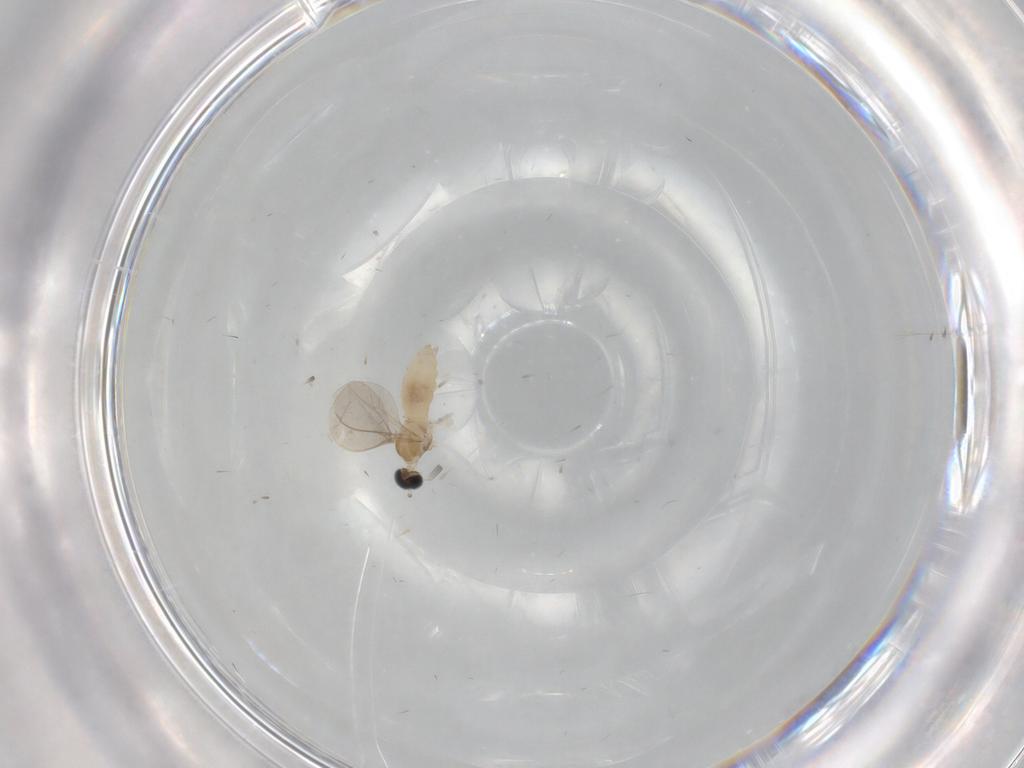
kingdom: Animalia
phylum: Arthropoda
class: Insecta
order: Diptera
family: Cecidomyiidae
